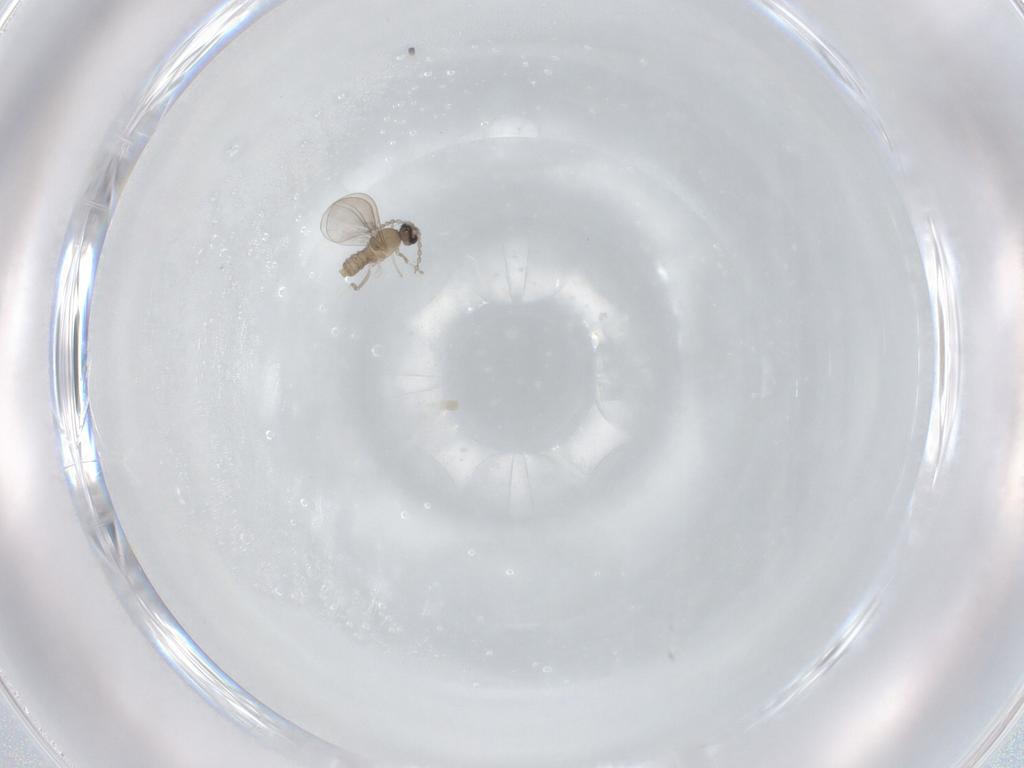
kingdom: Animalia
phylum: Arthropoda
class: Insecta
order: Diptera
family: Cecidomyiidae
